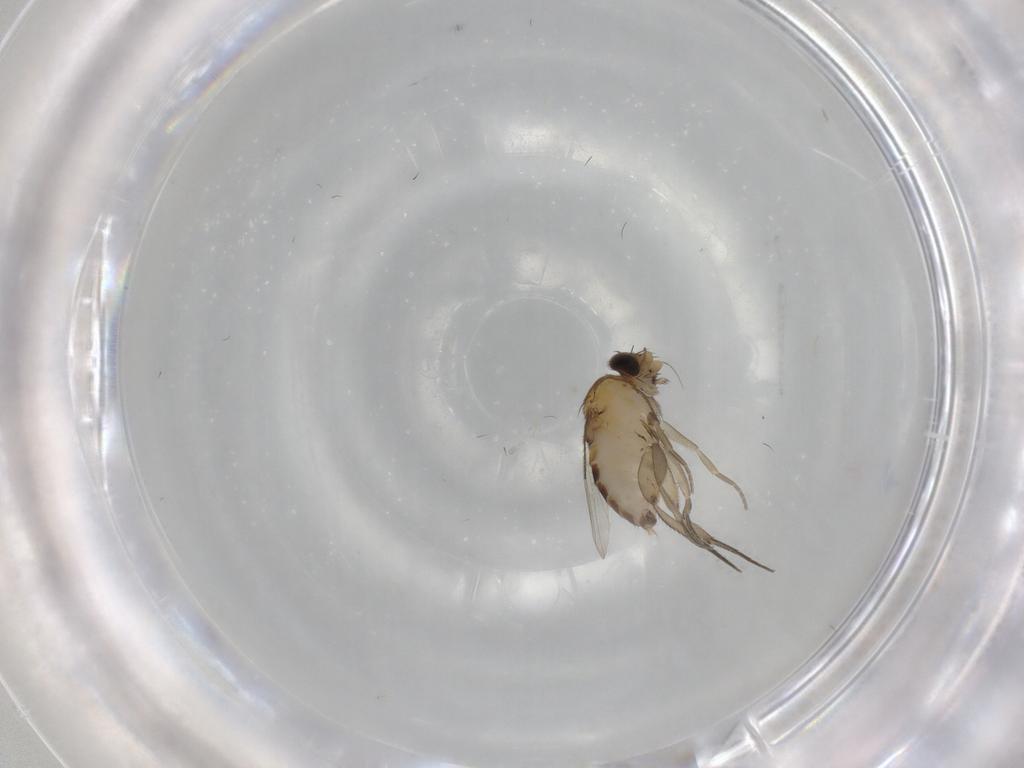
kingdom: Animalia
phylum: Arthropoda
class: Insecta
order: Diptera
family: Phoridae
